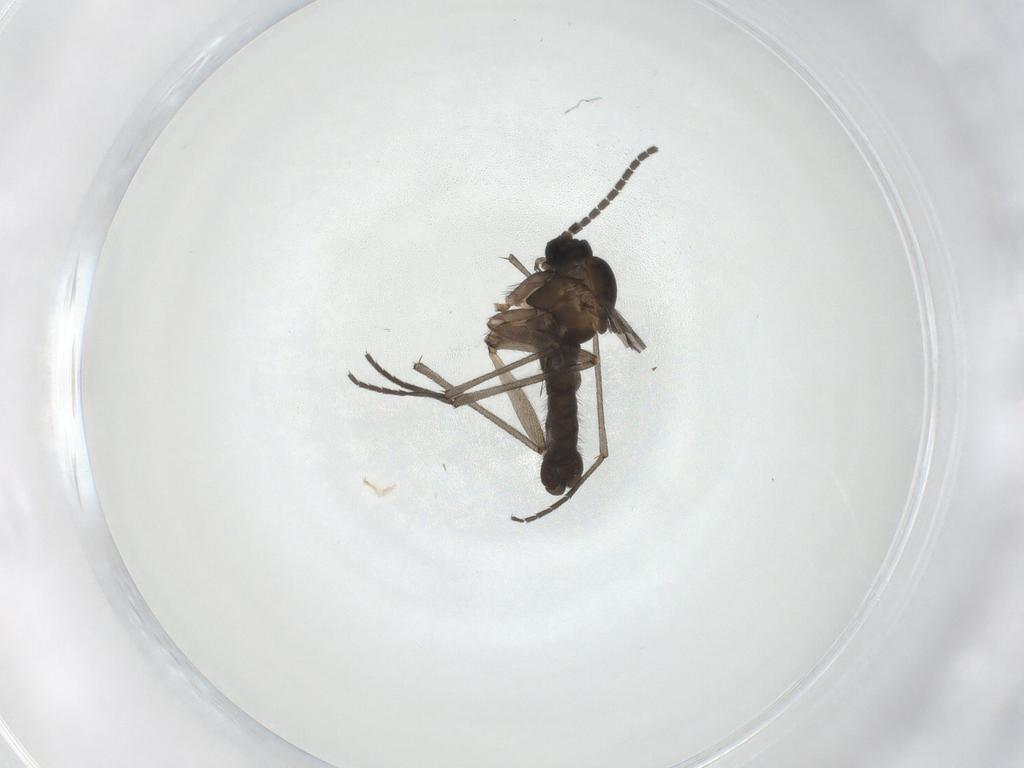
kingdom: Animalia
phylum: Arthropoda
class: Insecta
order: Diptera
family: Sciaridae
